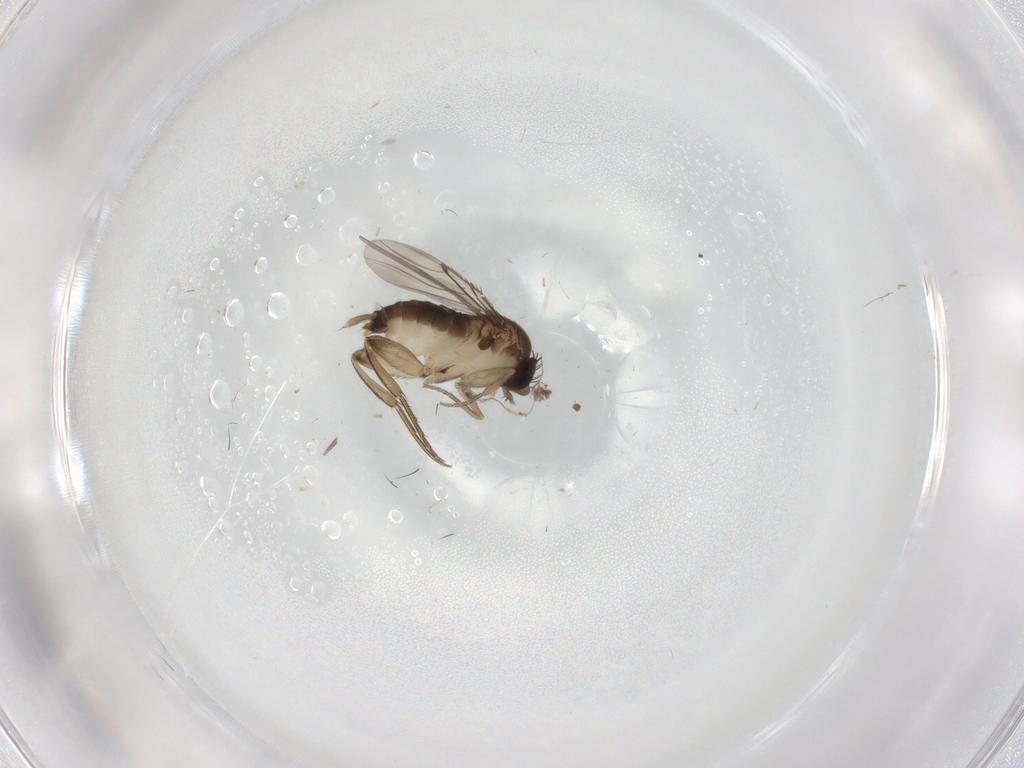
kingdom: Animalia
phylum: Arthropoda
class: Insecta
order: Diptera
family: Phoridae
